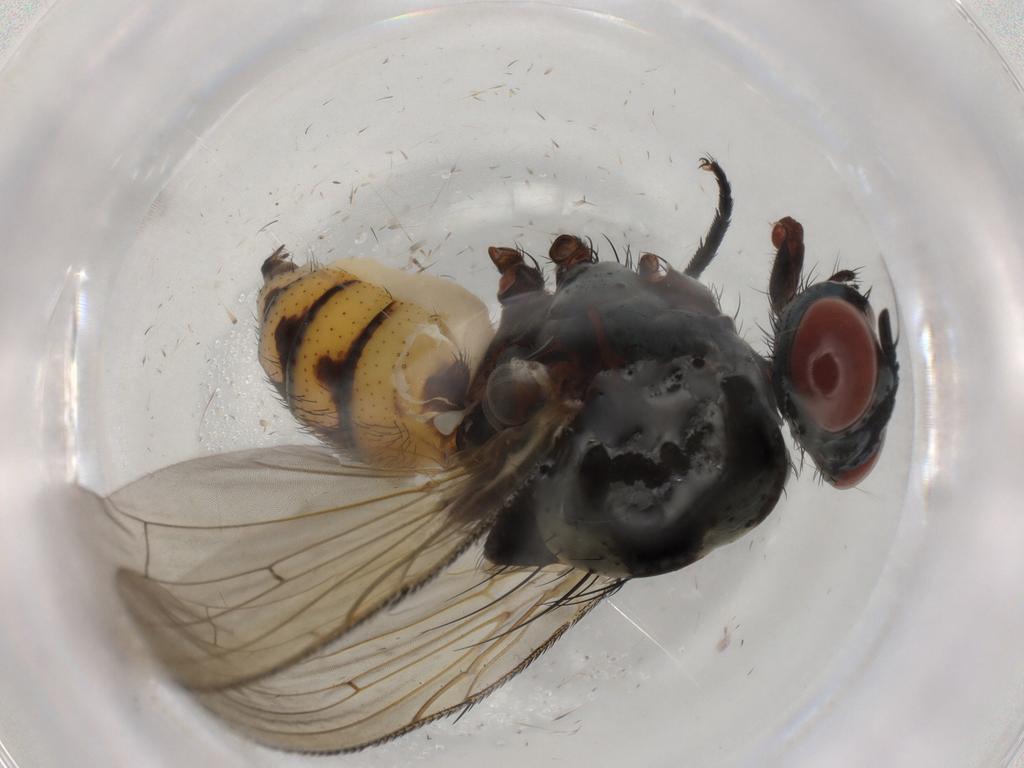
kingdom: Animalia
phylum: Arthropoda
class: Insecta
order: Diptera
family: Anthomyiidae
